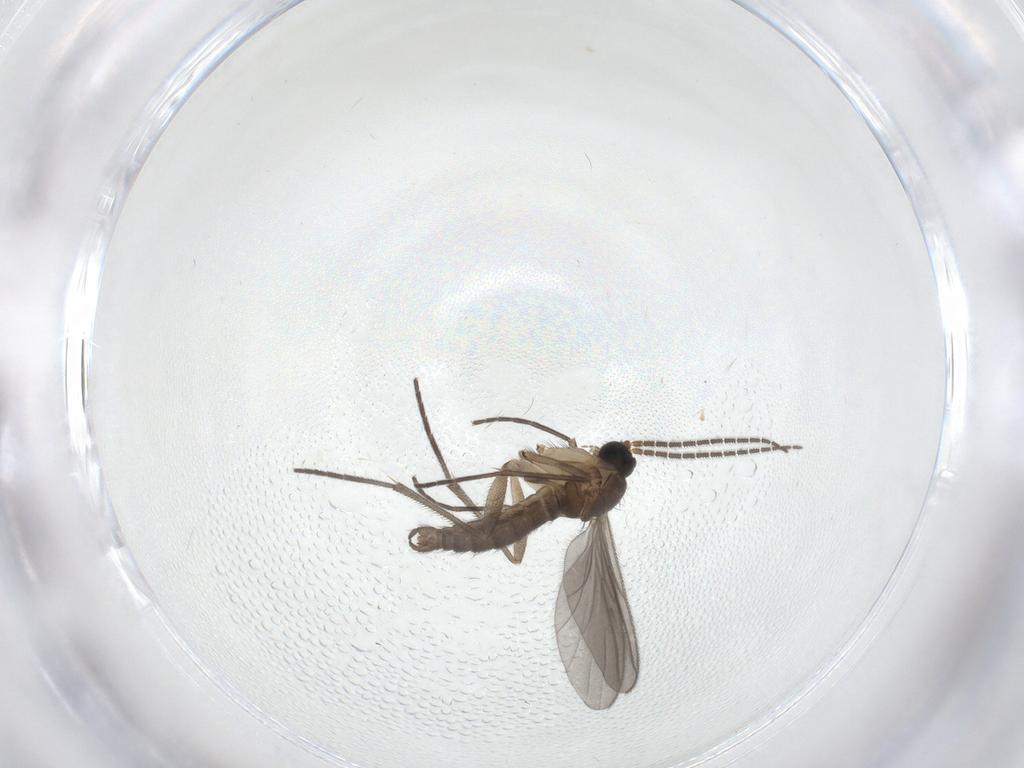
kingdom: Animalia
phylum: Arthropoda
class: Insecta
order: Diptera
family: Sciaridae
